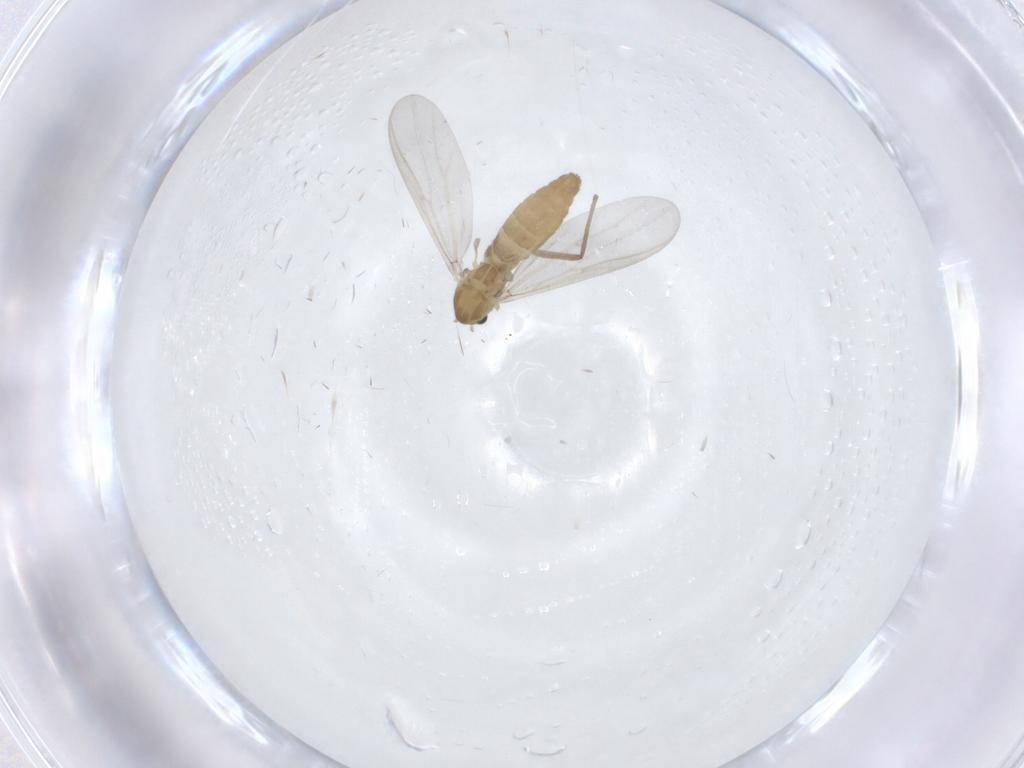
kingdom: Animalia
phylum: Arthropoda
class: Insecta
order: Diptera
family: Chironomidae
